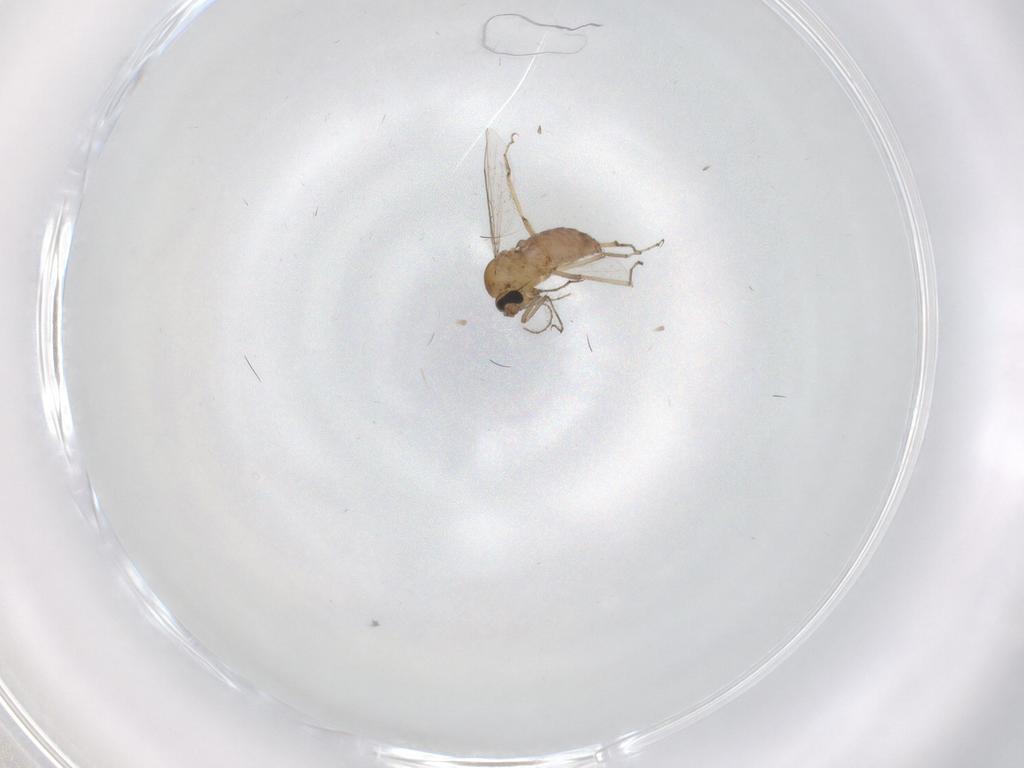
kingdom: Animalia
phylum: Arthropoda
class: Insecta
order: Diptera
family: Phoridae
